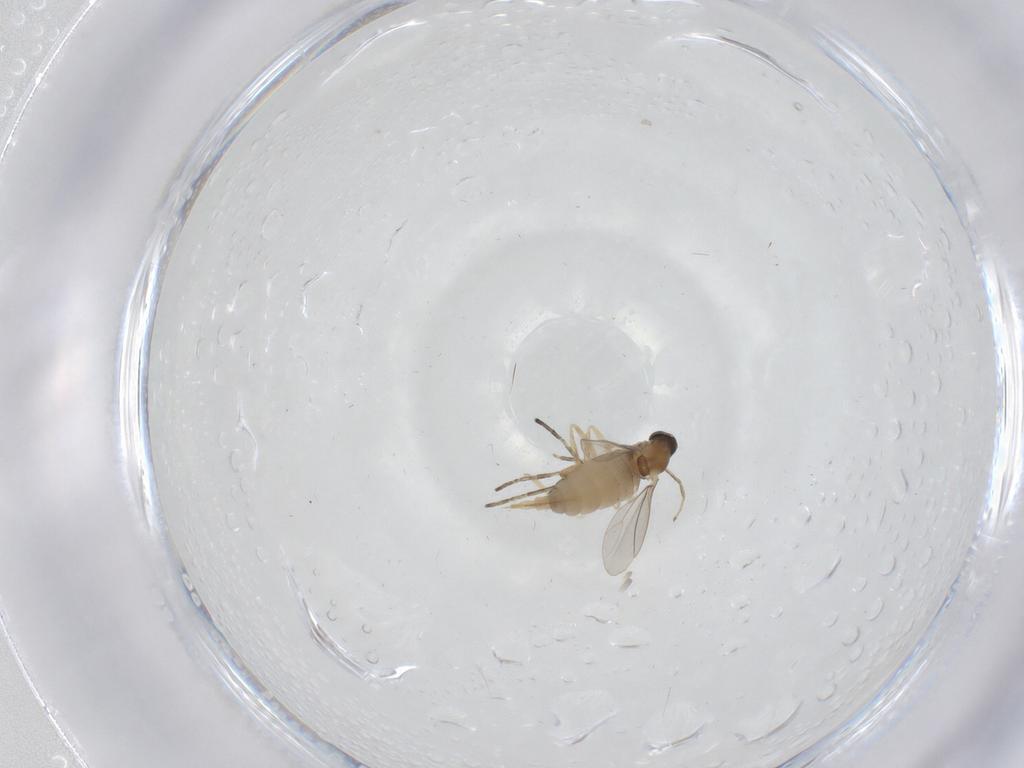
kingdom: Animalia
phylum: Arthropoda
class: Insecta
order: Diptera
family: Cecidomyiidae
